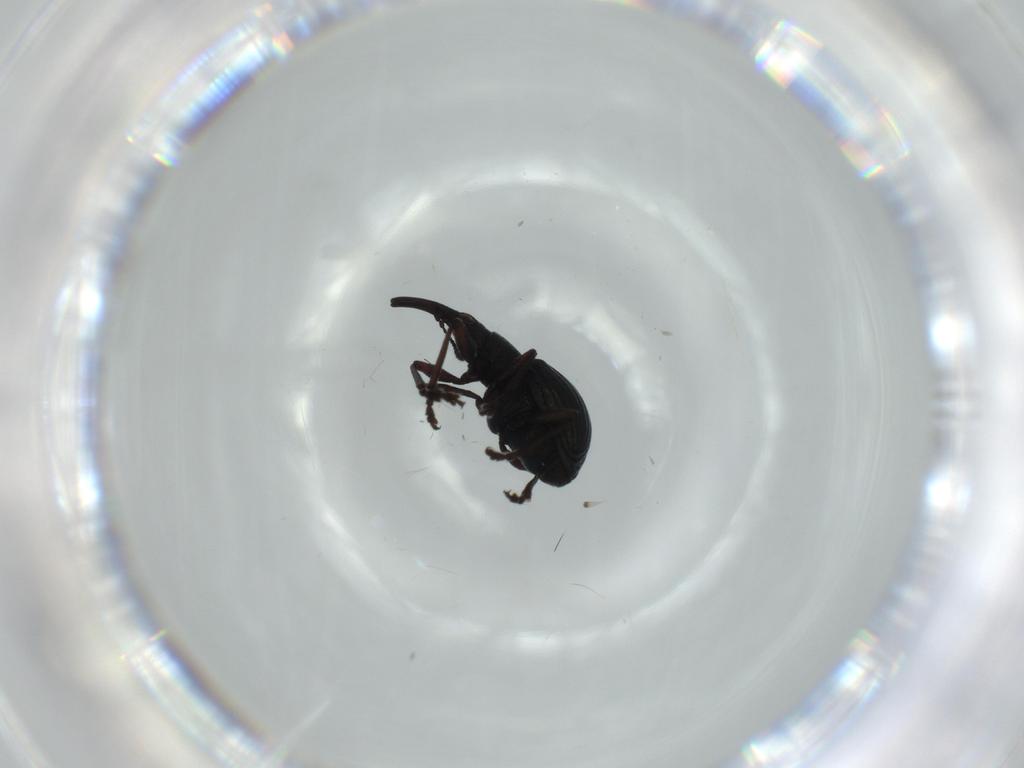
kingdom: Animalia
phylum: Arthropoda
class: Insecta
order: Coleoptera
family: Brentidae
